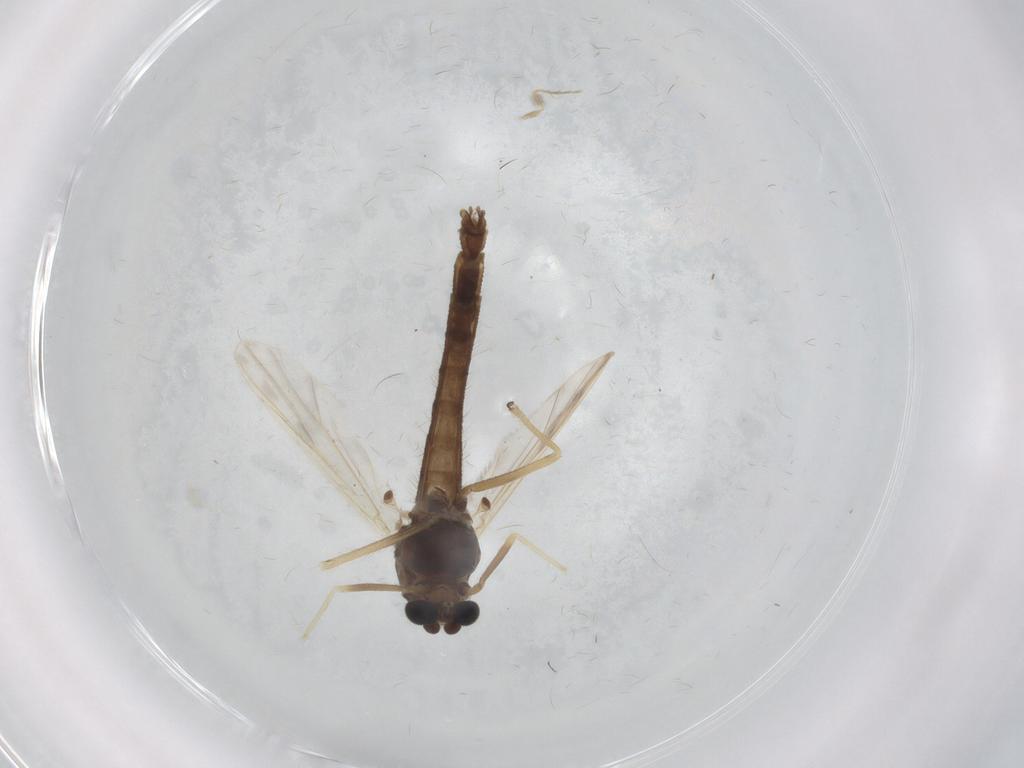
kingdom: Animalia
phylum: Arthropoda
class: Insecta
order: Diptera
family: Chironomidae
